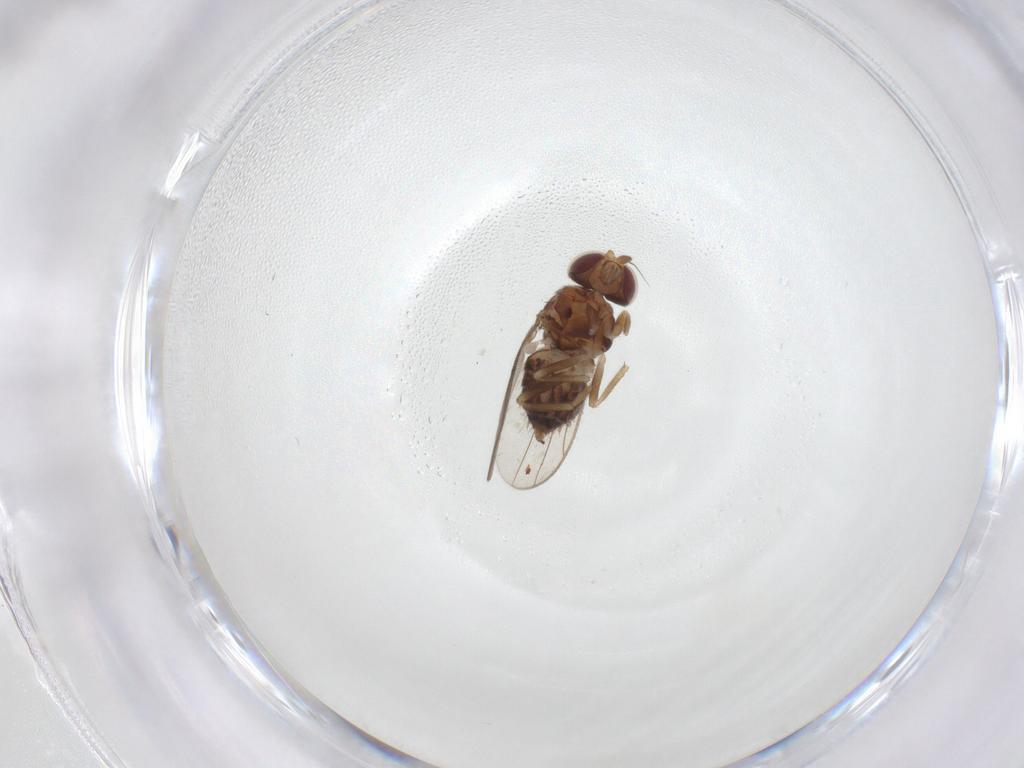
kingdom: Animalia
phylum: Arthropoda
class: Insecta
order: Diptera
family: Chloropidae
